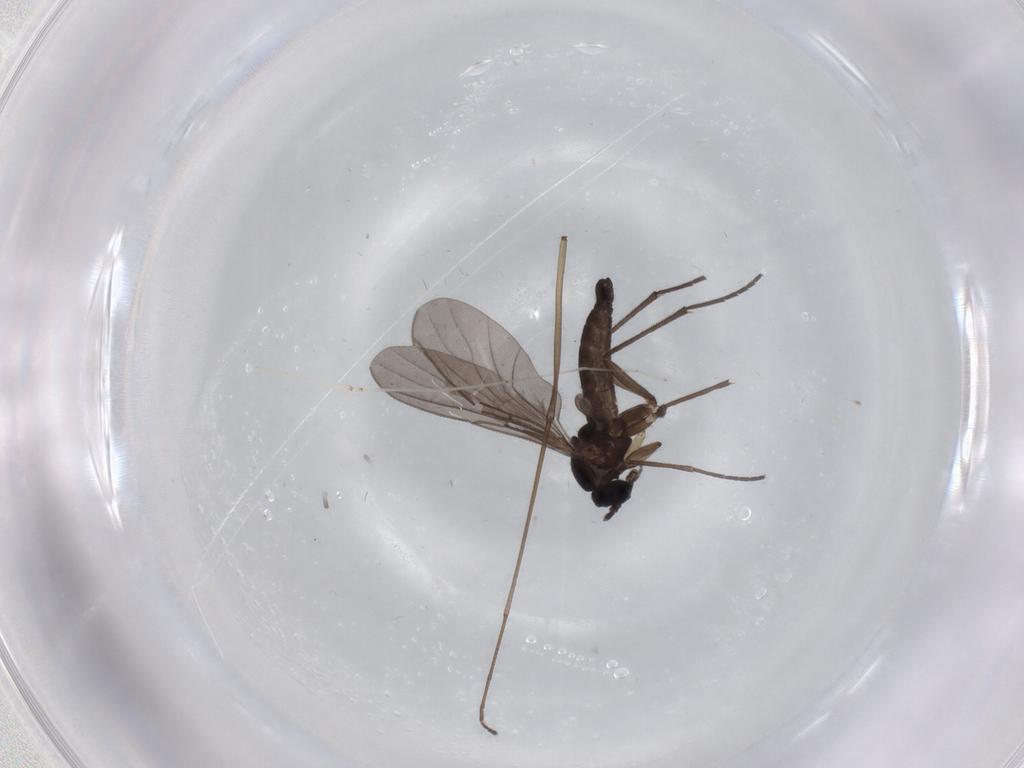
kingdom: Animalia
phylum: Arthropoda
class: Insecta
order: Diptera
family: Sciaridae
